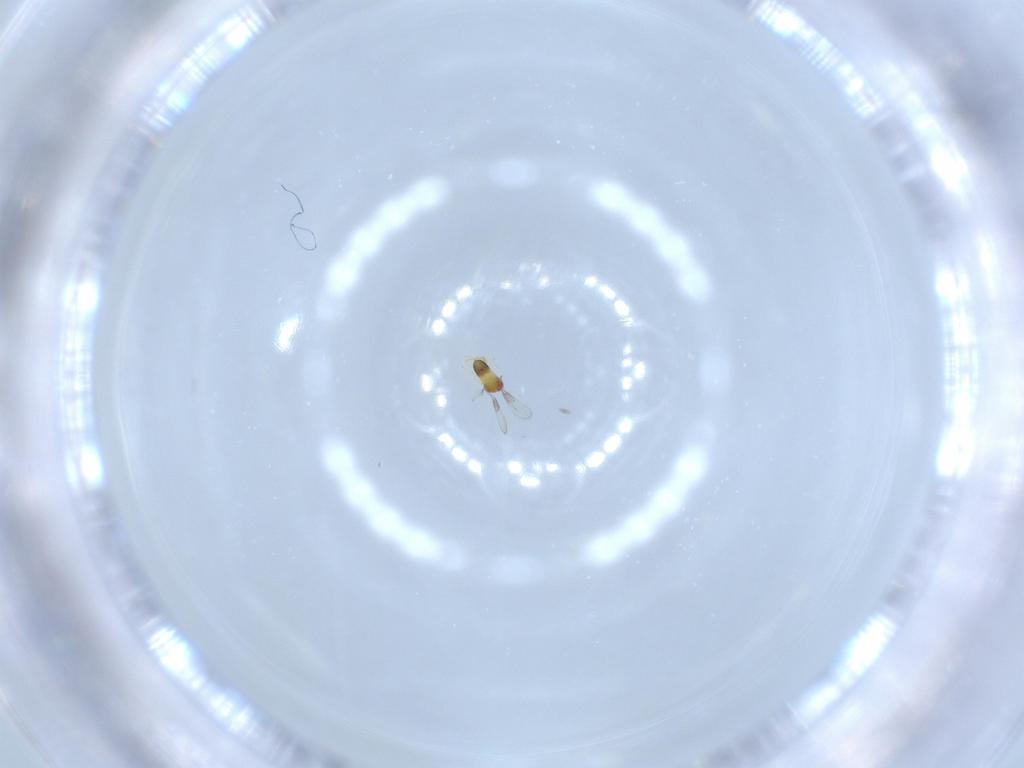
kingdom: Animalia
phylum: Arthropoda
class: Insecta
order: Hymenoptera
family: Trichogrammatidae
